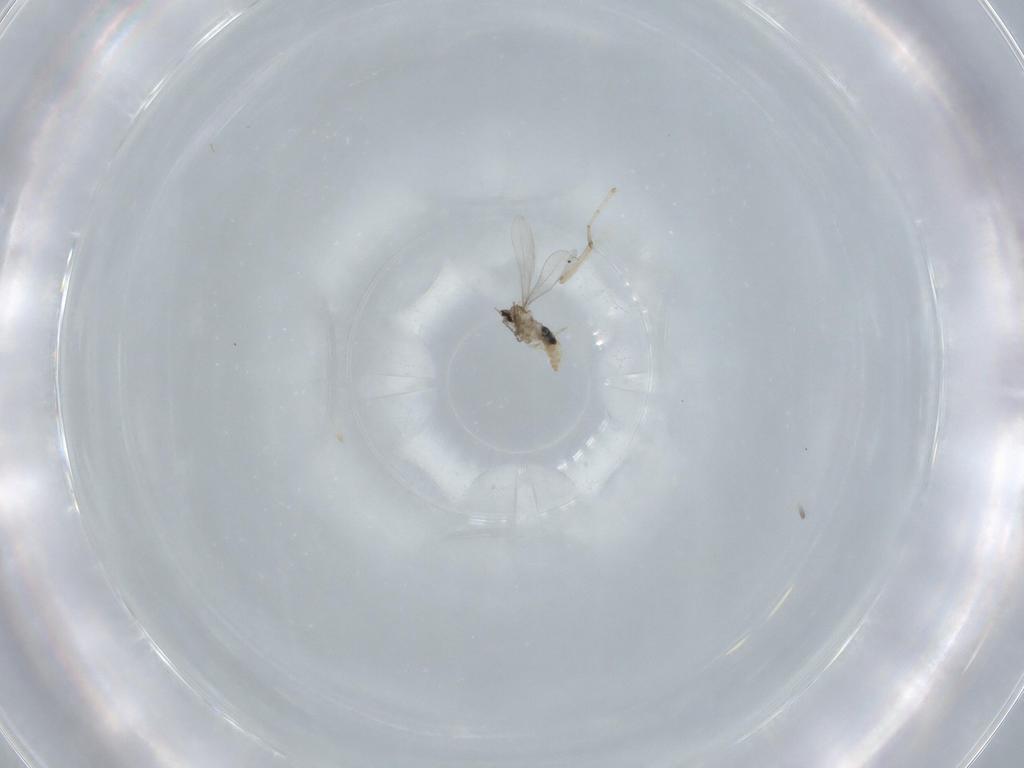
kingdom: Animalia
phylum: Arthropoda
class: Insecta
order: Diptera
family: Cecidomyiidae
